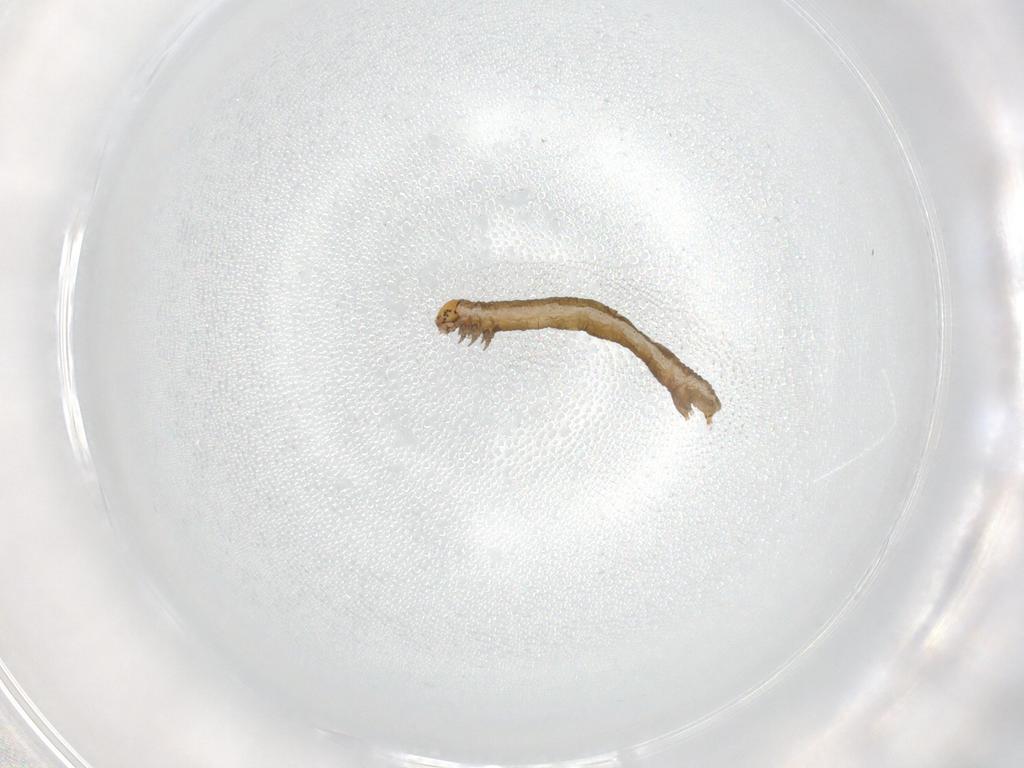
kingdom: Animalia
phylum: Arthropoda
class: Insecta
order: Lepidoptera
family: Geometridae
